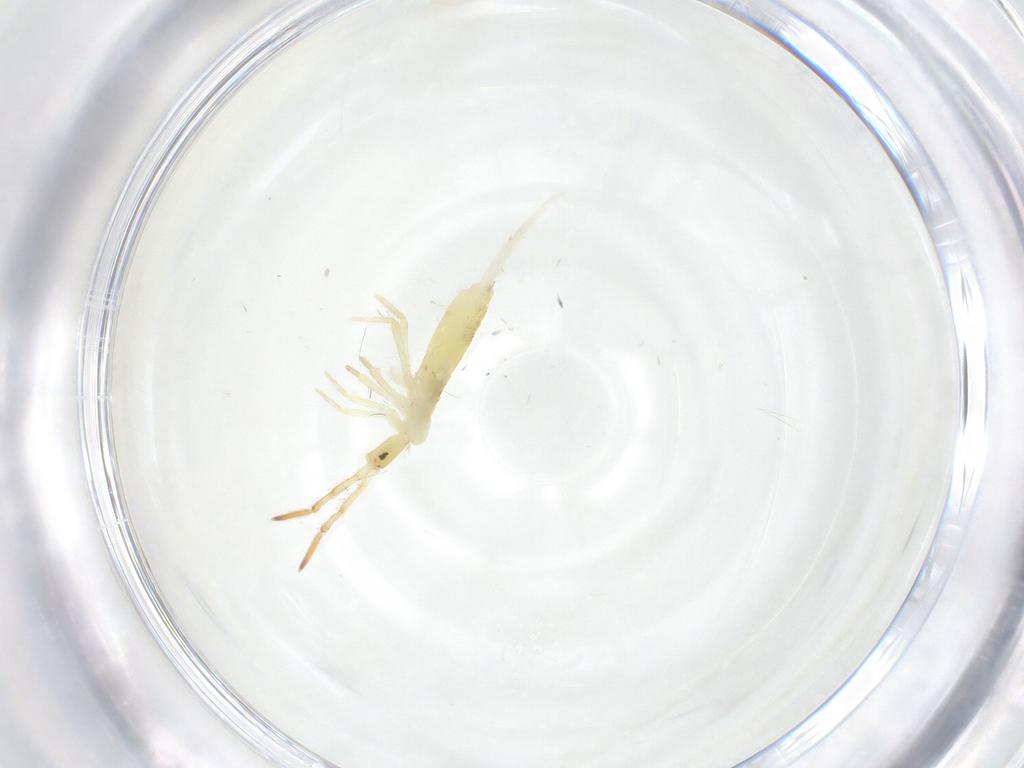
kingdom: Animalia
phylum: Arthropoda
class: Collembola
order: Entomobryomorpha
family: Entomobryidae
